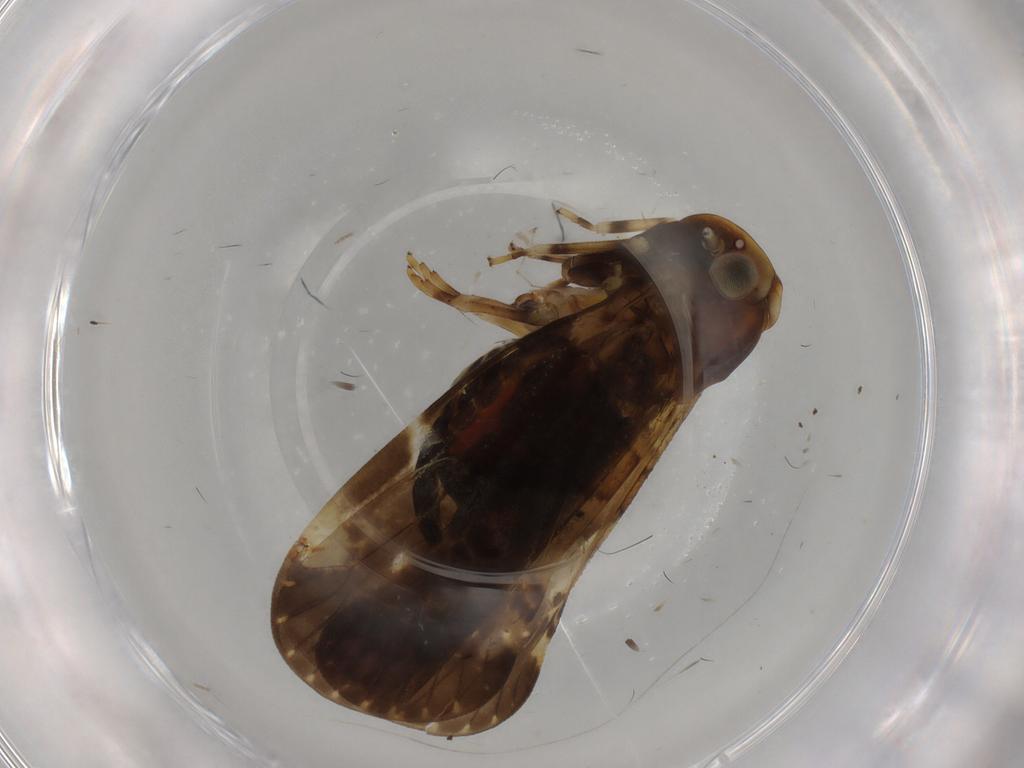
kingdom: Animalia
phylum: Arthropoda
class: Insecta
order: Hemiptera
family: Cixiidae
